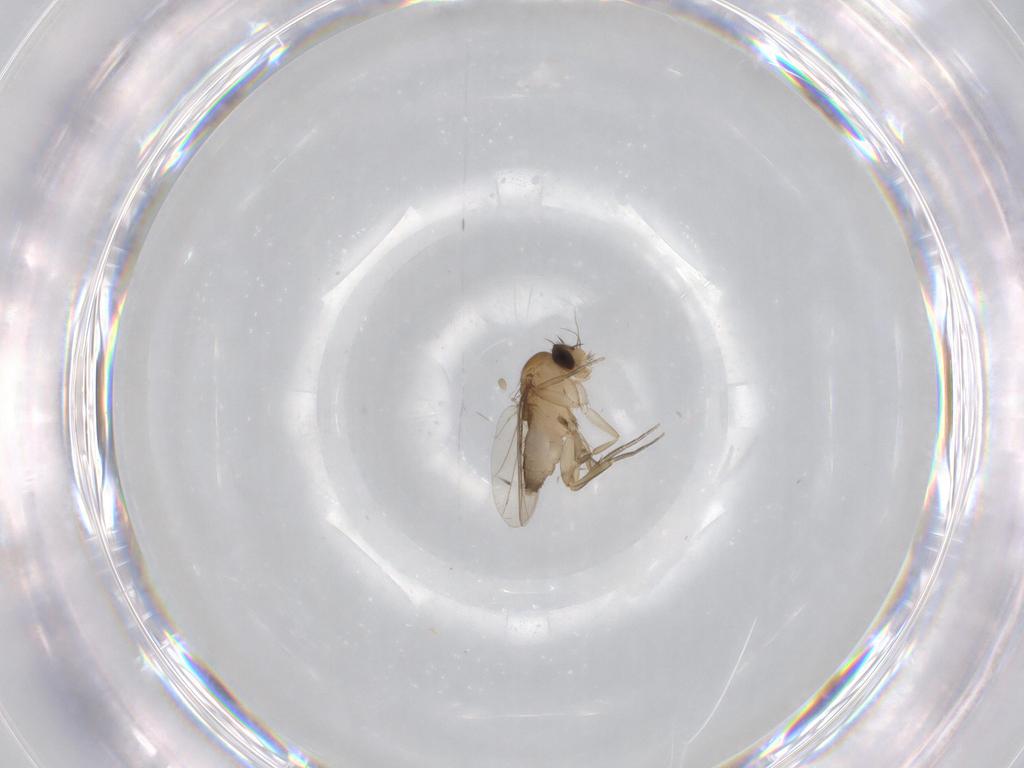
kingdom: Animalia
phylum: Arthropoda
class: Insecta
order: Diptera
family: Phoridae
